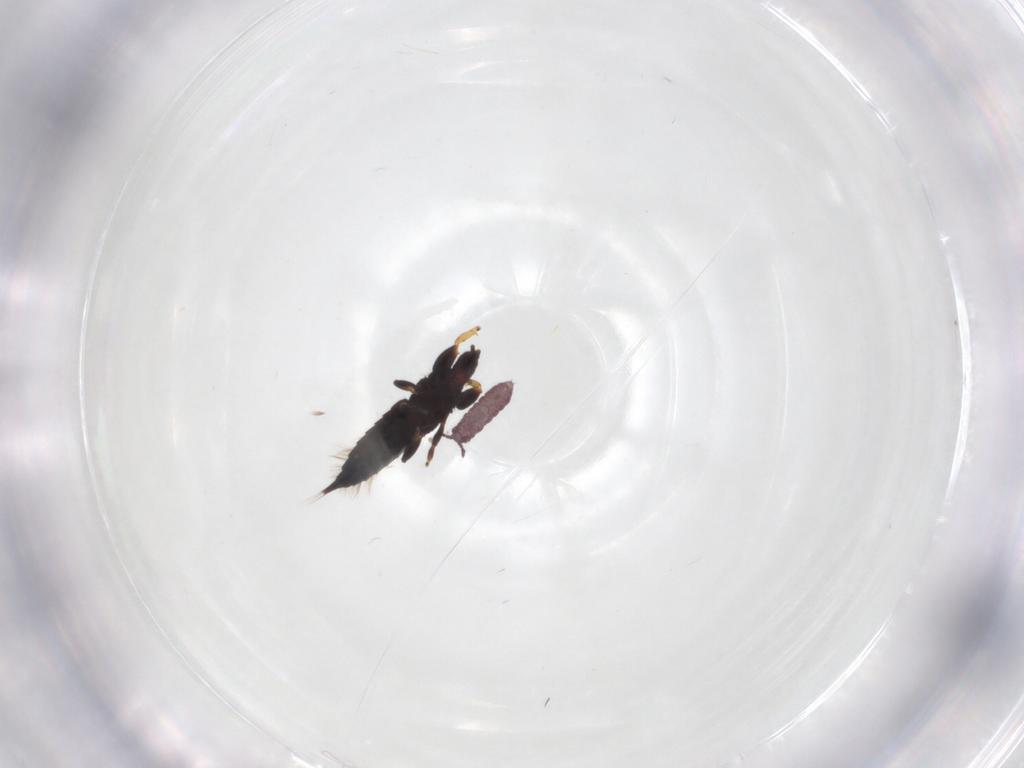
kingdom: Animalia
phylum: Arthropoda
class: Insecta
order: Thysanoptera
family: Phlaeothripidae
